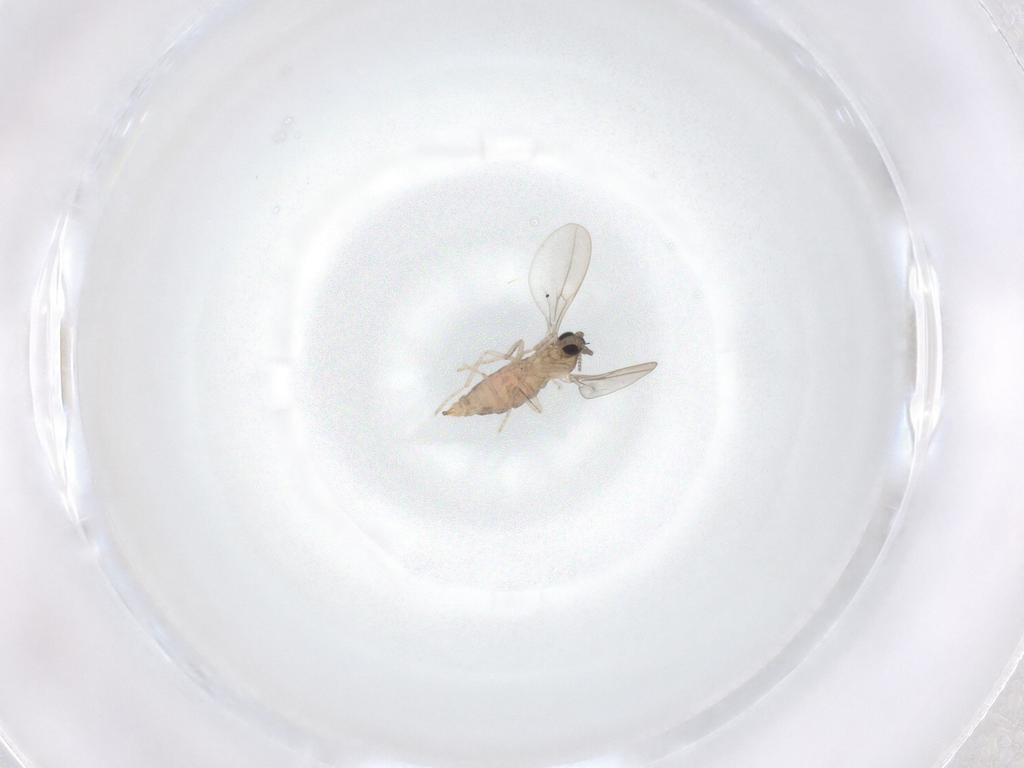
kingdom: Animalia
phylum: Arthropoda
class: Insecta
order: Diptera
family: Cecidomyiidae
